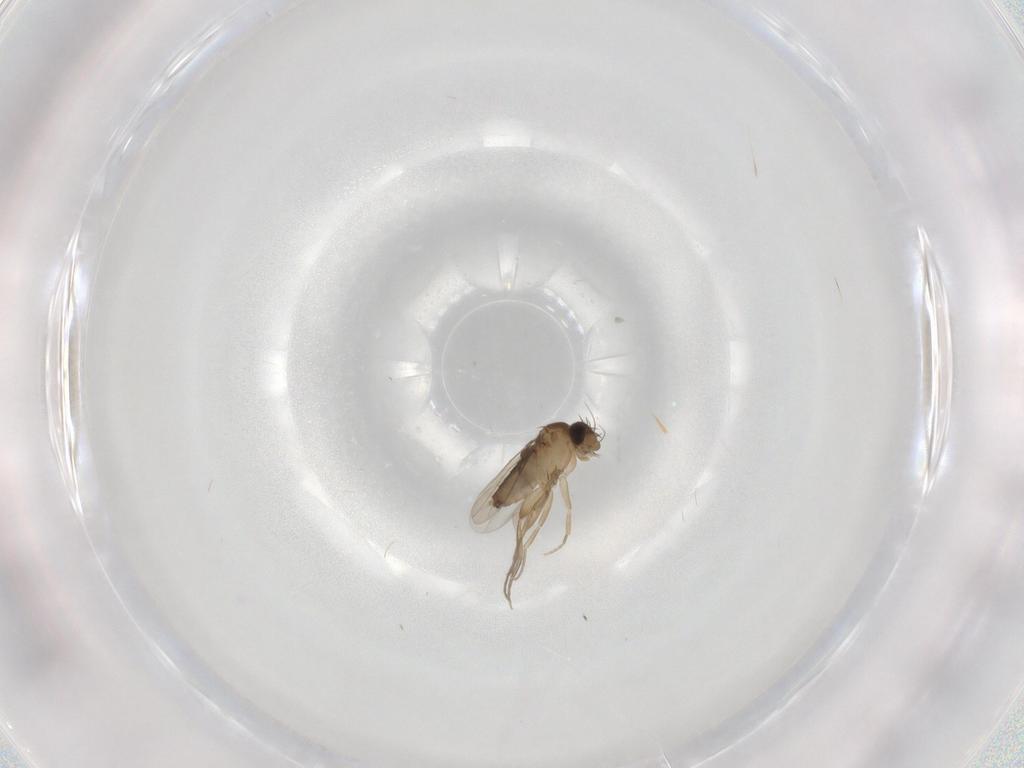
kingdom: Animalia
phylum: Arthropoda
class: Insecta
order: Diptera
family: Phoridae
